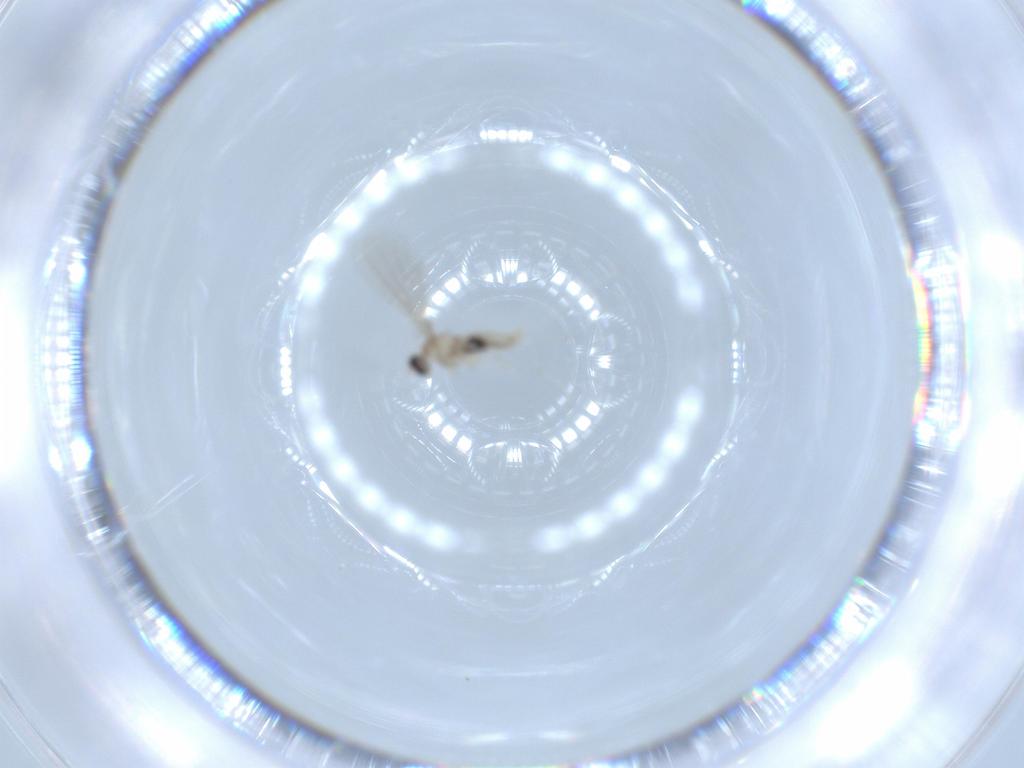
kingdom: Animalia
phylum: Arthropoda
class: Insecta
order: Diptera
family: Cecidomyiidae
